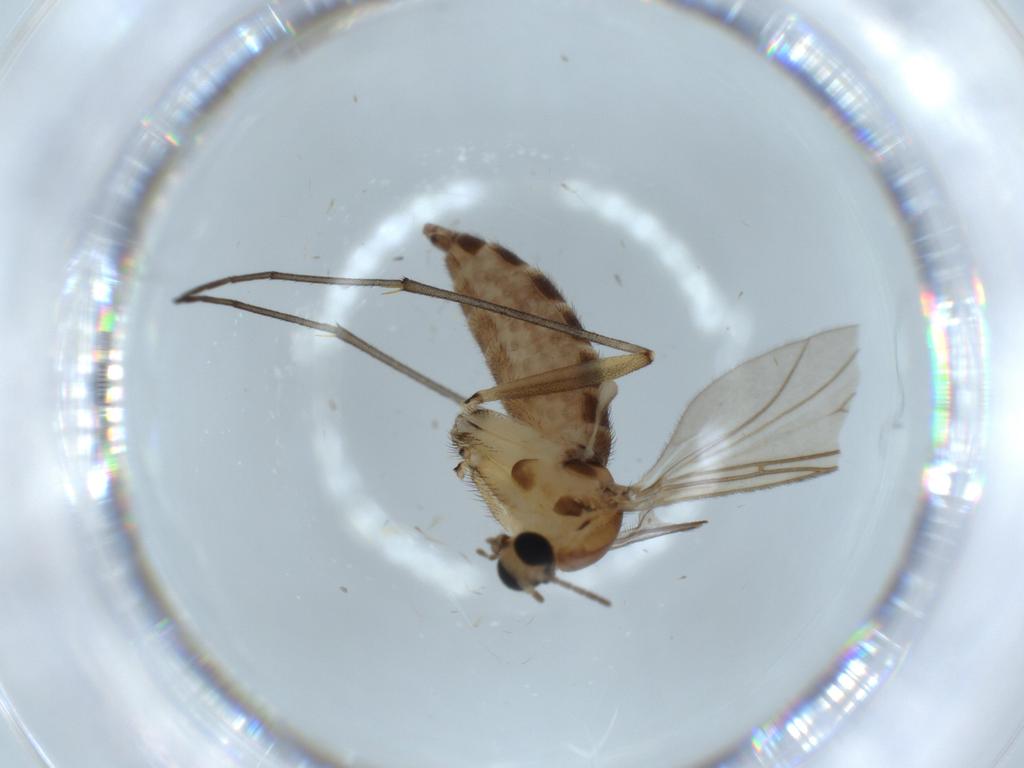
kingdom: Animalia
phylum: Arthropoda
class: Insecta
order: Diptera
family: Sciaridae
